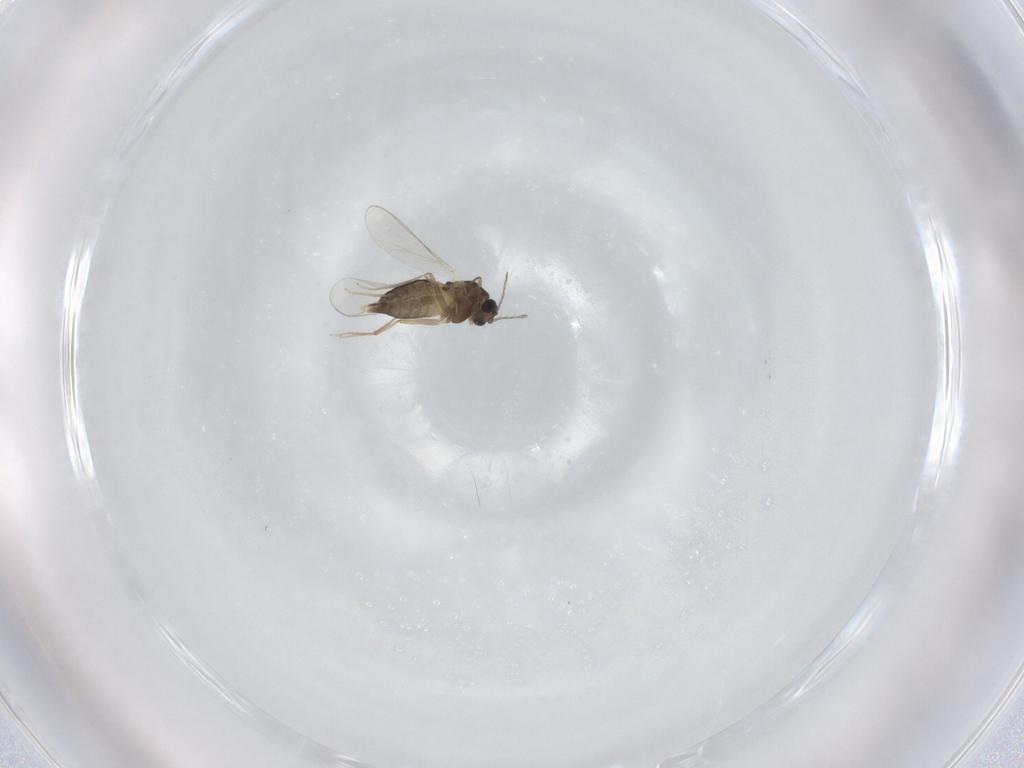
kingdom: Animalia
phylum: Arthropoda
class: Insecta
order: Diptera
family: Chironomidae
